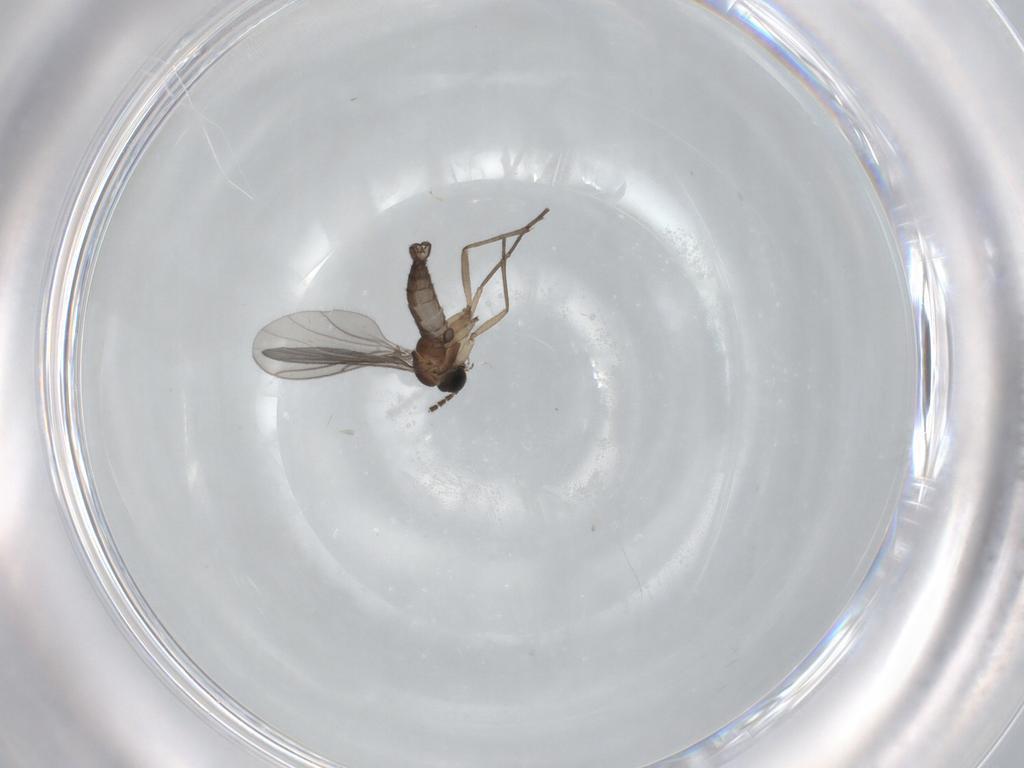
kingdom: Animalia
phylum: Arthropoda
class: Insecta
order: Diptera
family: Sciaridae
